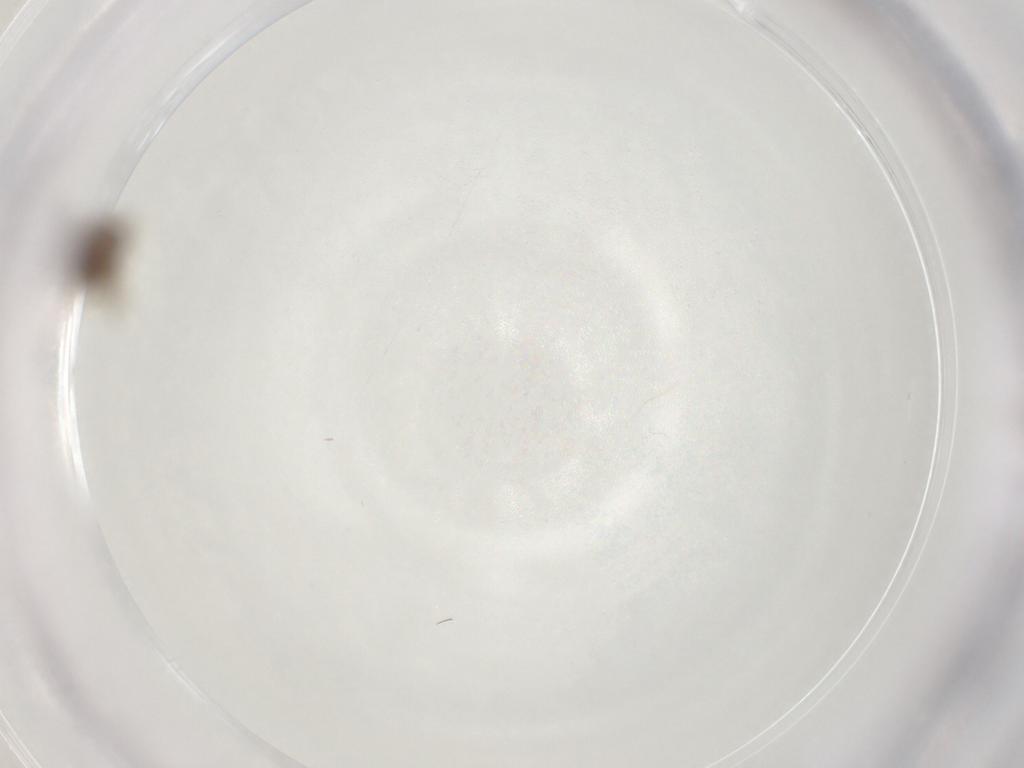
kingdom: Animalia
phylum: Arthropoda
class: Collembola
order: Entomobryomorpha
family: Entomobryidae
